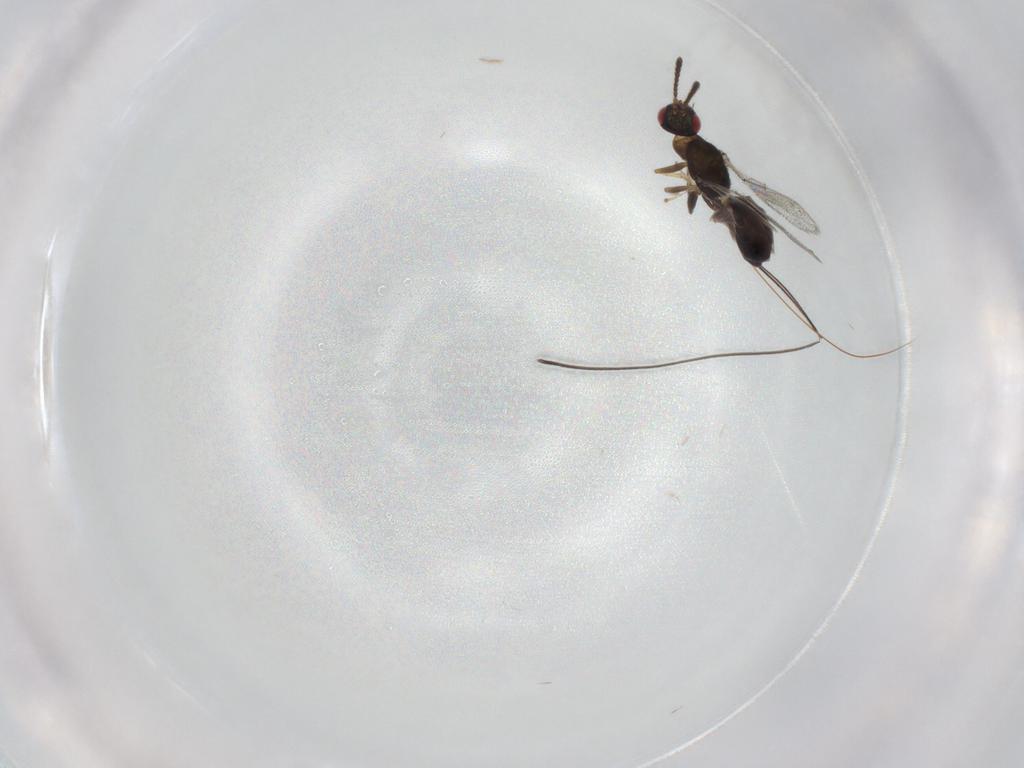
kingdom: Animalia
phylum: Arthropoda
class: Insecta
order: Hymenoptera
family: Torymidae
